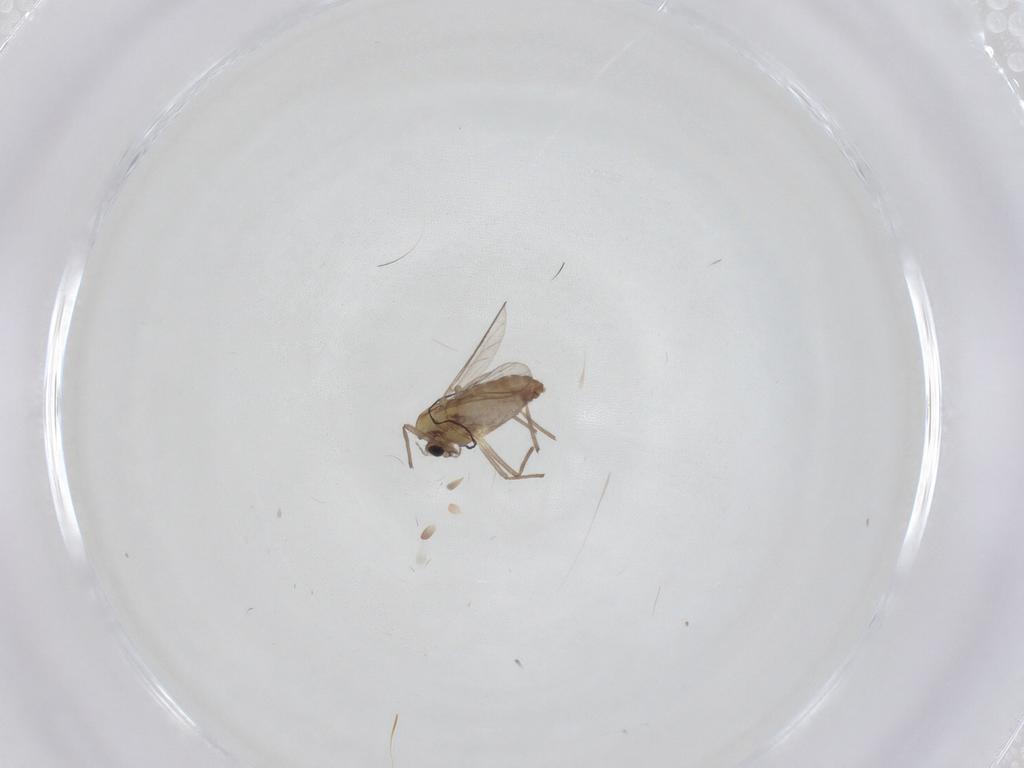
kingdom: Animalia
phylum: Arthropoda
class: Insecta
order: Diptera
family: Chironomidae
